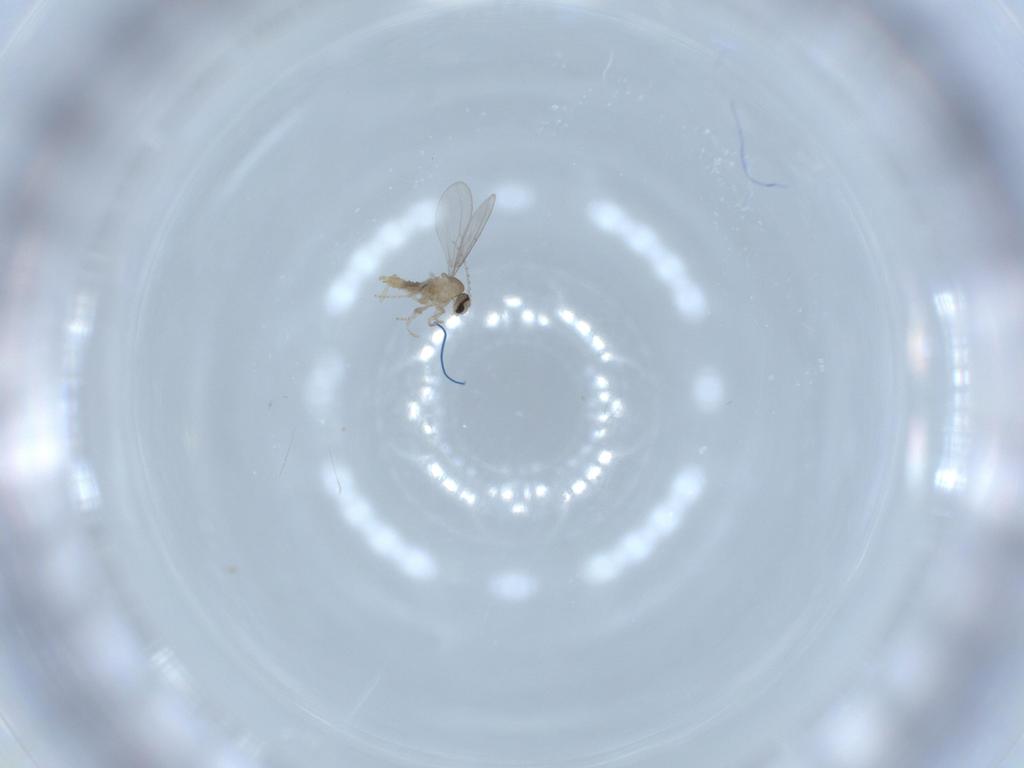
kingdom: Animalia
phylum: Arthropoda
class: Insecta
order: Diptera
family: Cecidomyiidae
